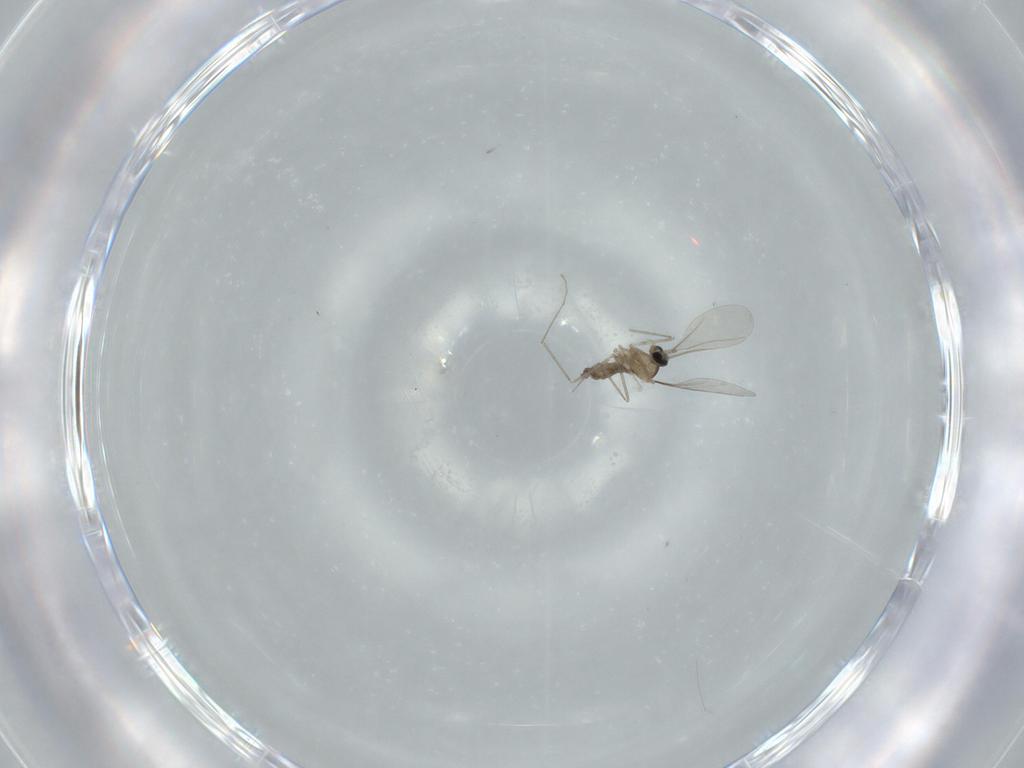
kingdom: Animalia
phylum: Arthropoda
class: Insecta
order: Diptera
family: Cecidomyiidae
